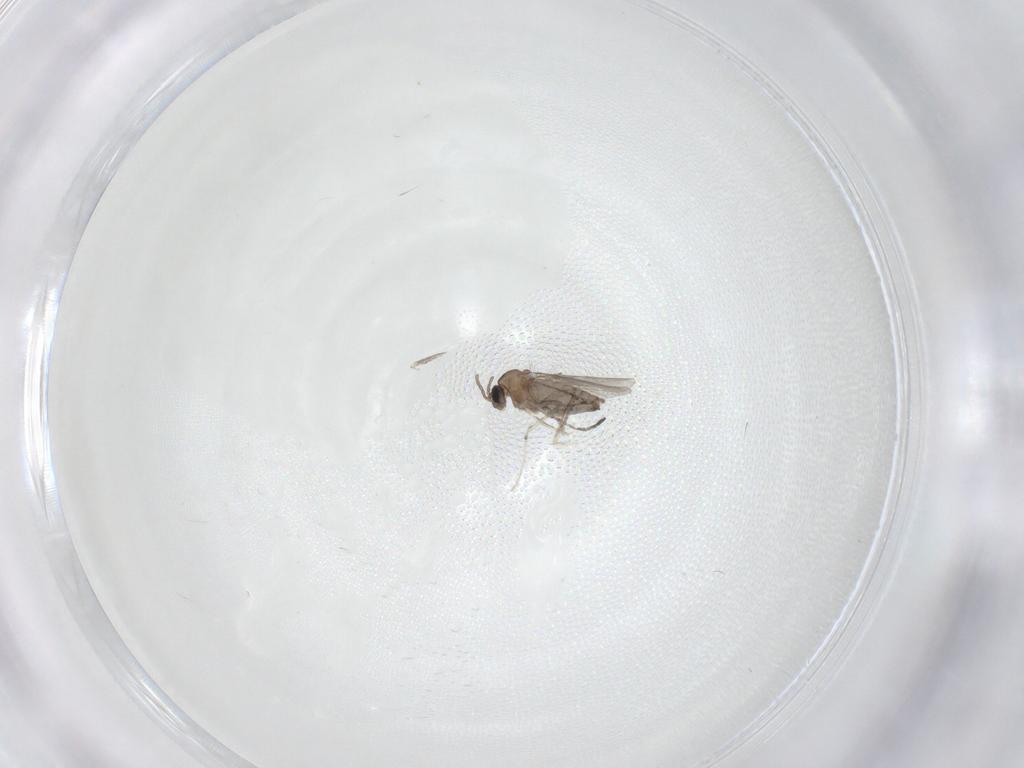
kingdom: Animalia
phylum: Arthropoda
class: Insecta
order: Diptera
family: Cecidomyiidae
